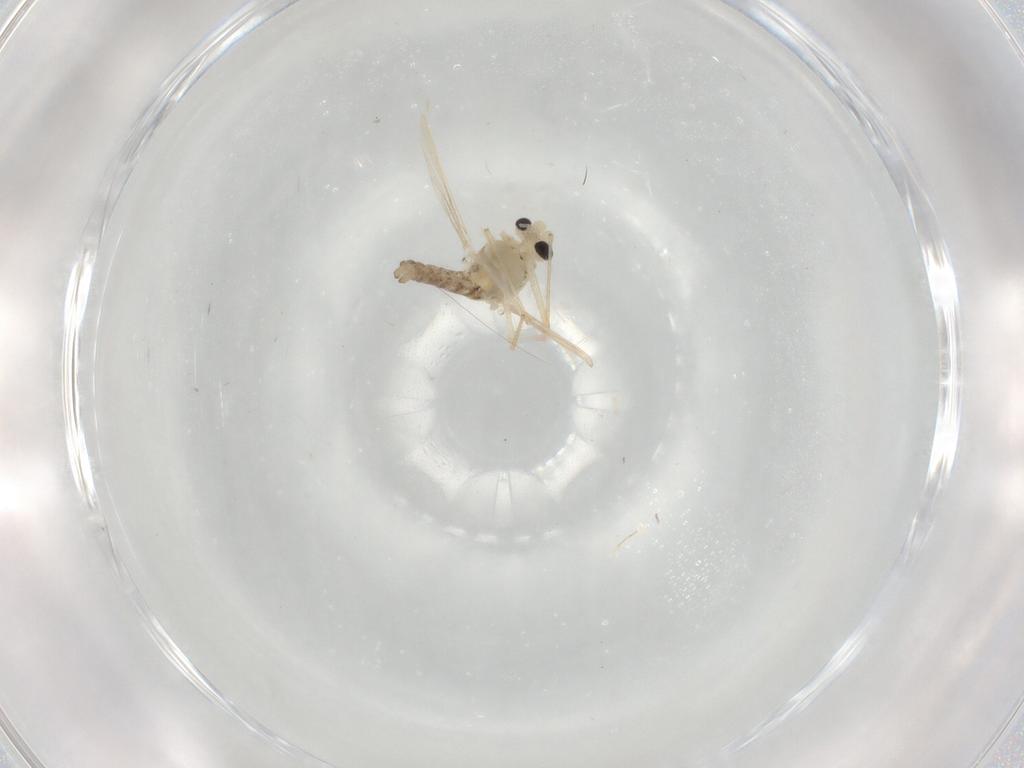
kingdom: Animalia
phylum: Arthropoda
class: Insecta
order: Diptera
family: Chironomidae
